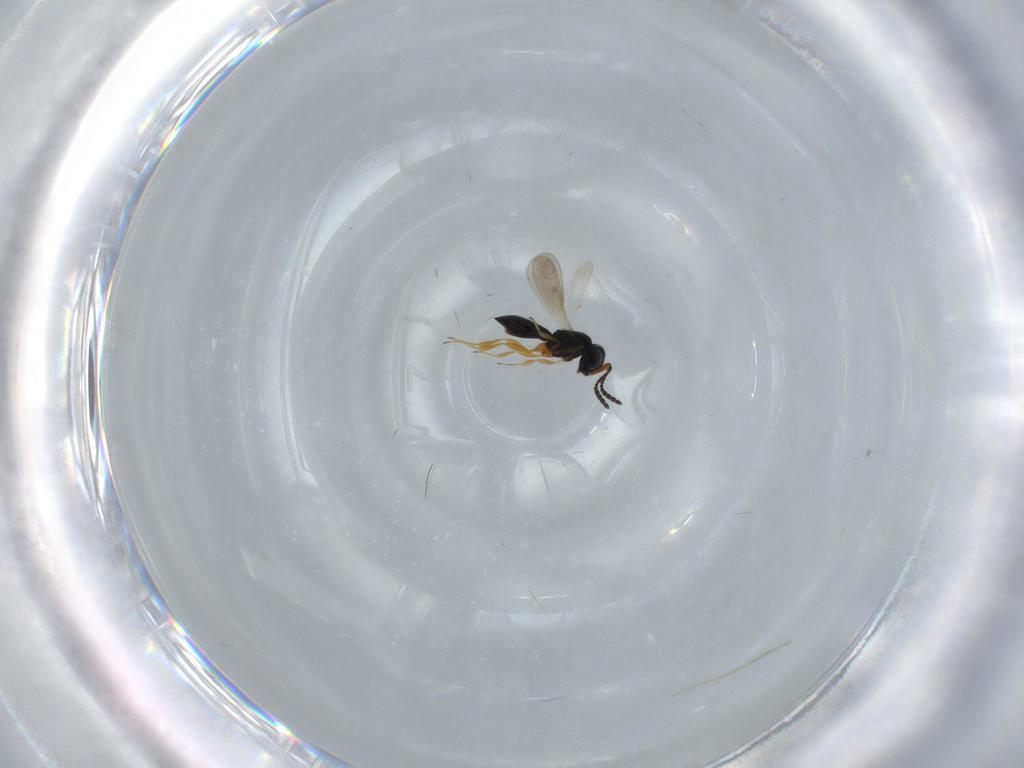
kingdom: Animalia
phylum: Arthropoda
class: Insecta
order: Hymenoptera
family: Scelionidae
